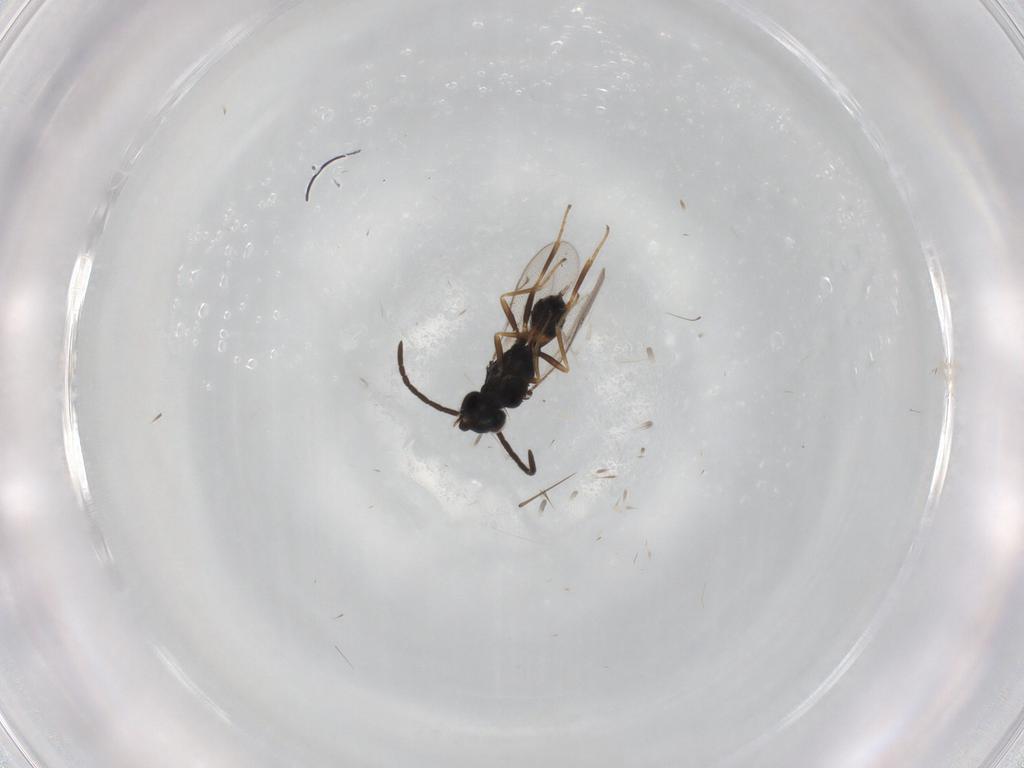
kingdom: Animalia
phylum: Arthropoda
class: Insecta
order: Hymenoptera
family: Eupelmidae
